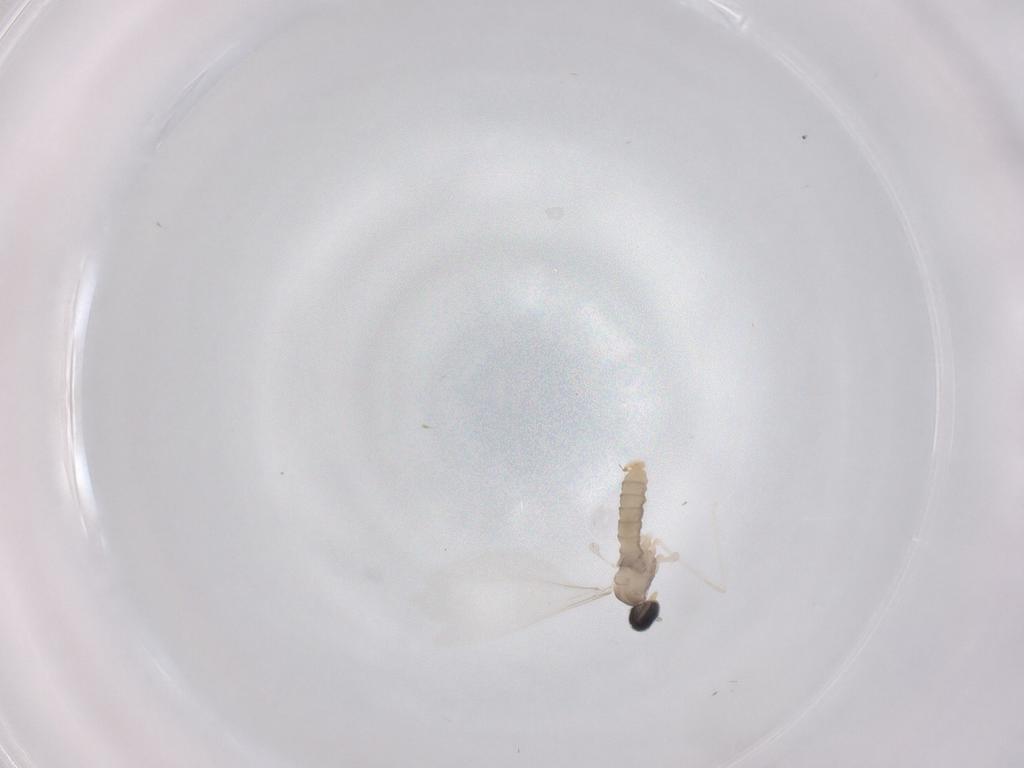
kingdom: Animalia
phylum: Arthropoda
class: Insecta
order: Diptera
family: Cecidomyiidae
